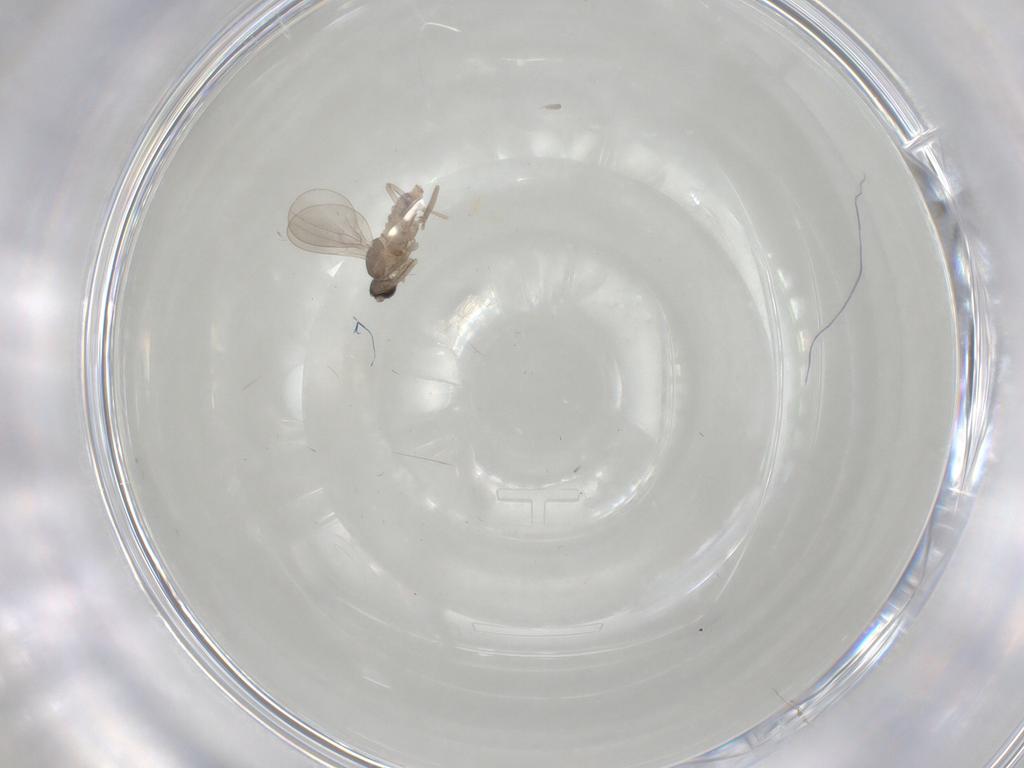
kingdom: Animalia
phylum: Arthropoda
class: Insecta
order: Diptera
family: Cecidomyiidae
